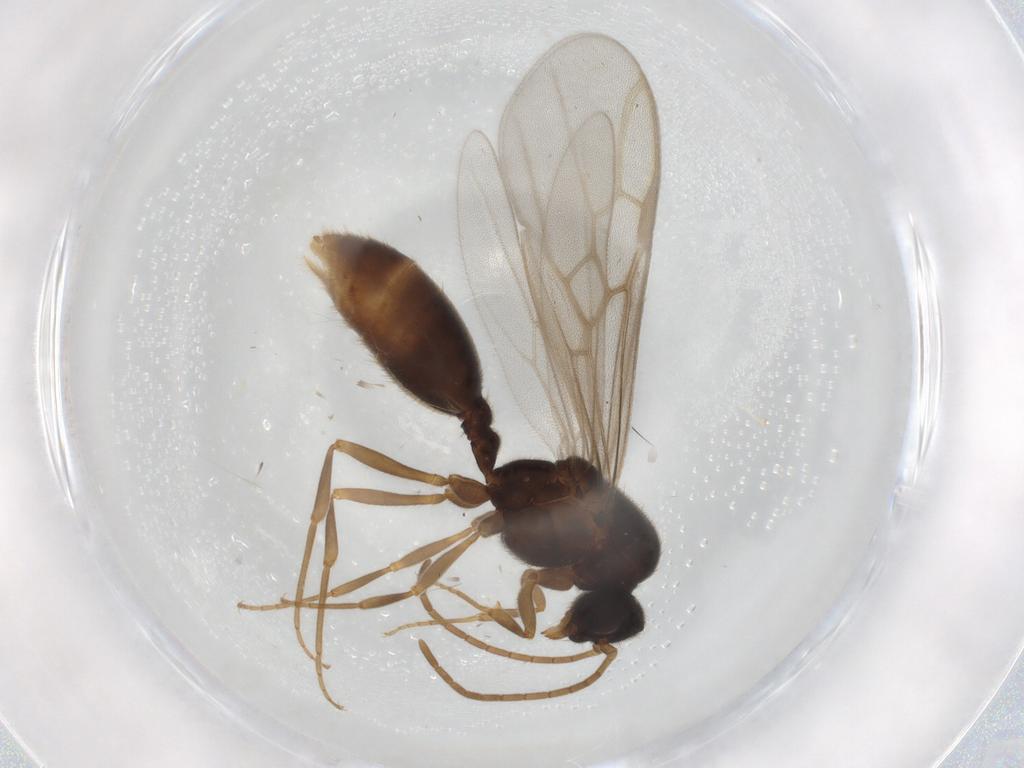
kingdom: Animalia
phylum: Arthropoda
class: Insecta
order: Hymenoptera
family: Formicidae
